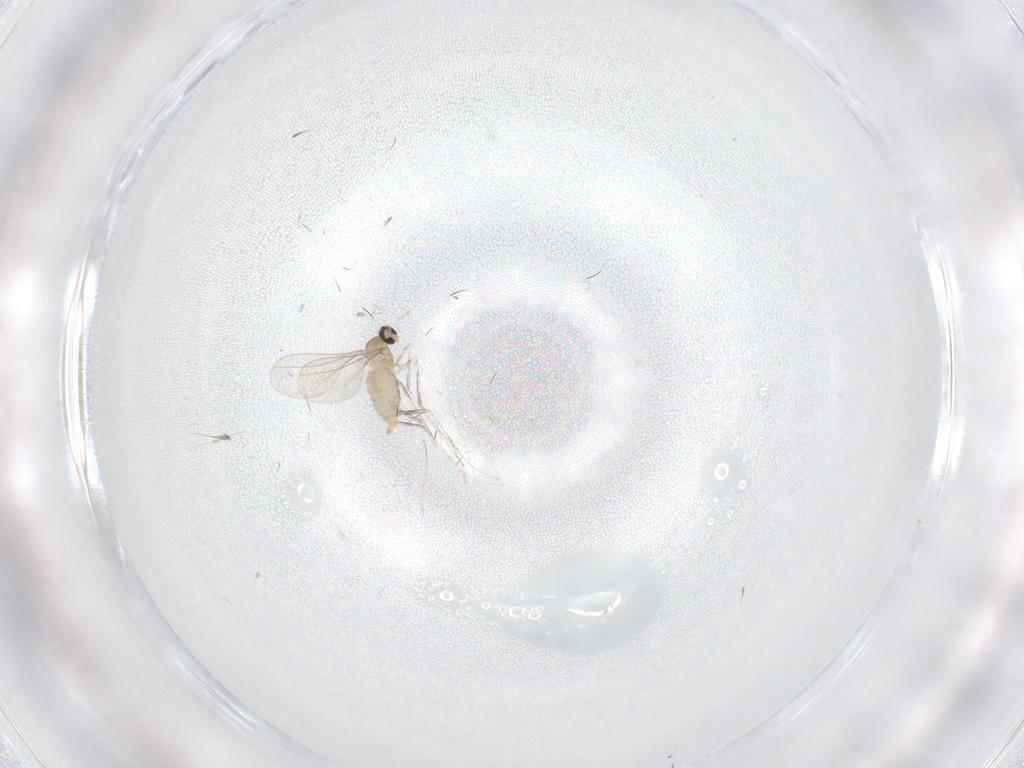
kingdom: Animalia
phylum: Arthropoda
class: Insecta
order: Diptera
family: Cecidomyiidae
